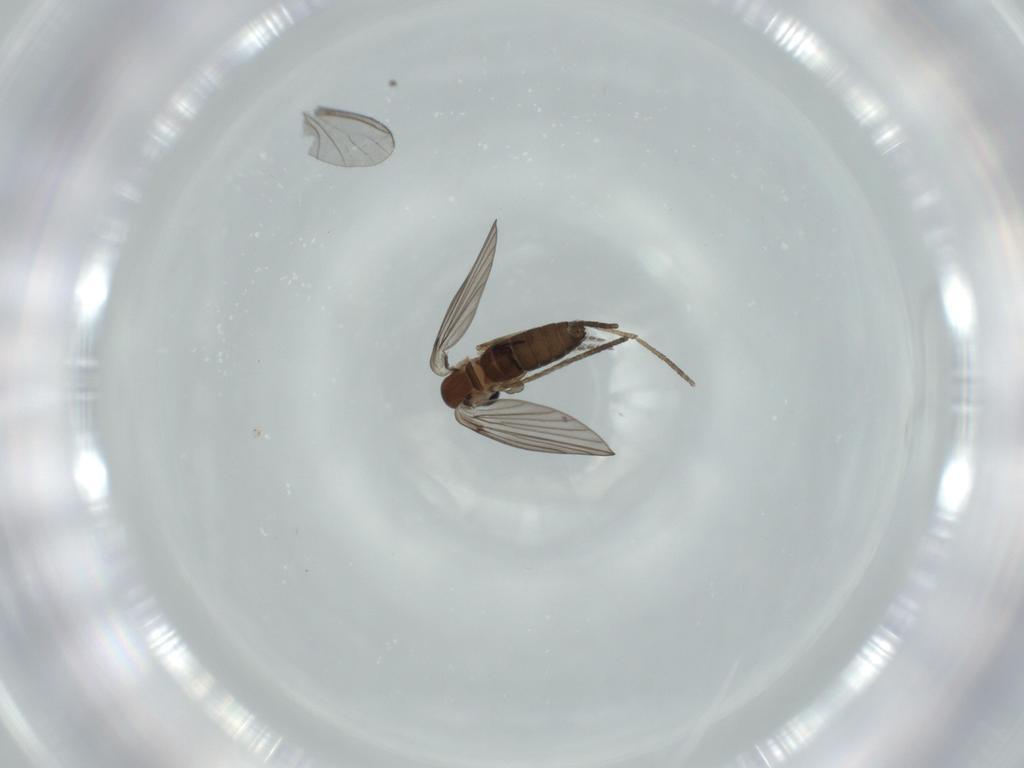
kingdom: Animalia
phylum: Arthropoda
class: Insecta
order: Diptera
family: Psychodidae
